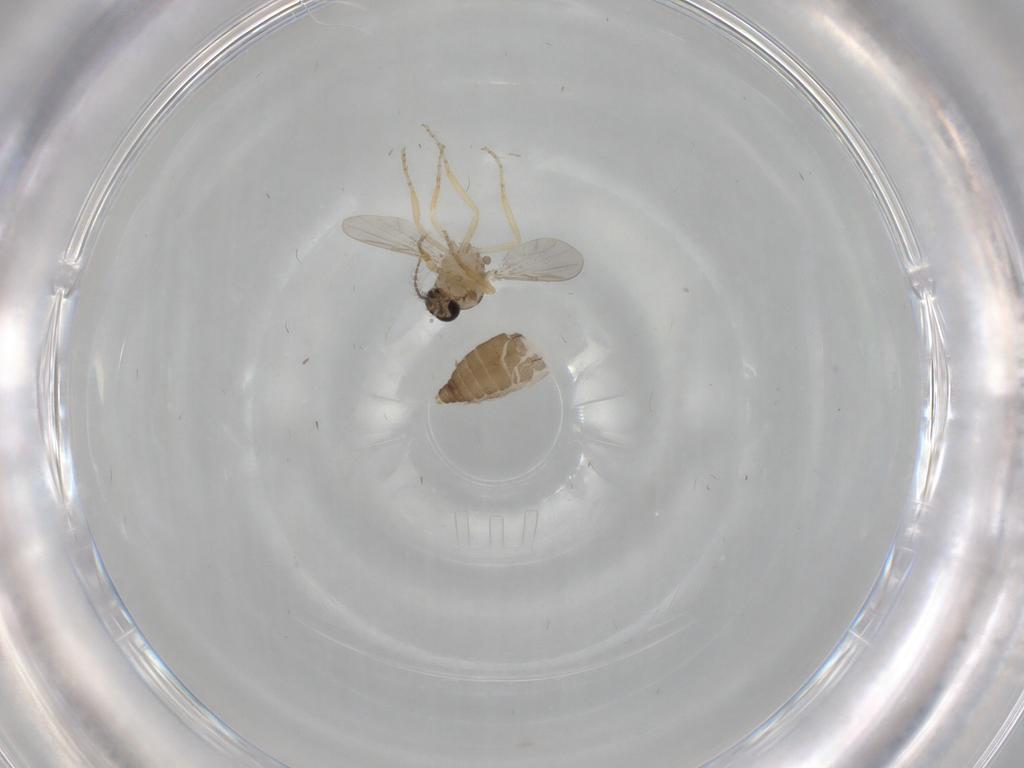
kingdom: Animalia
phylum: Arthropoda
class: Insecta
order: Diptera
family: Ceratopogonidae
